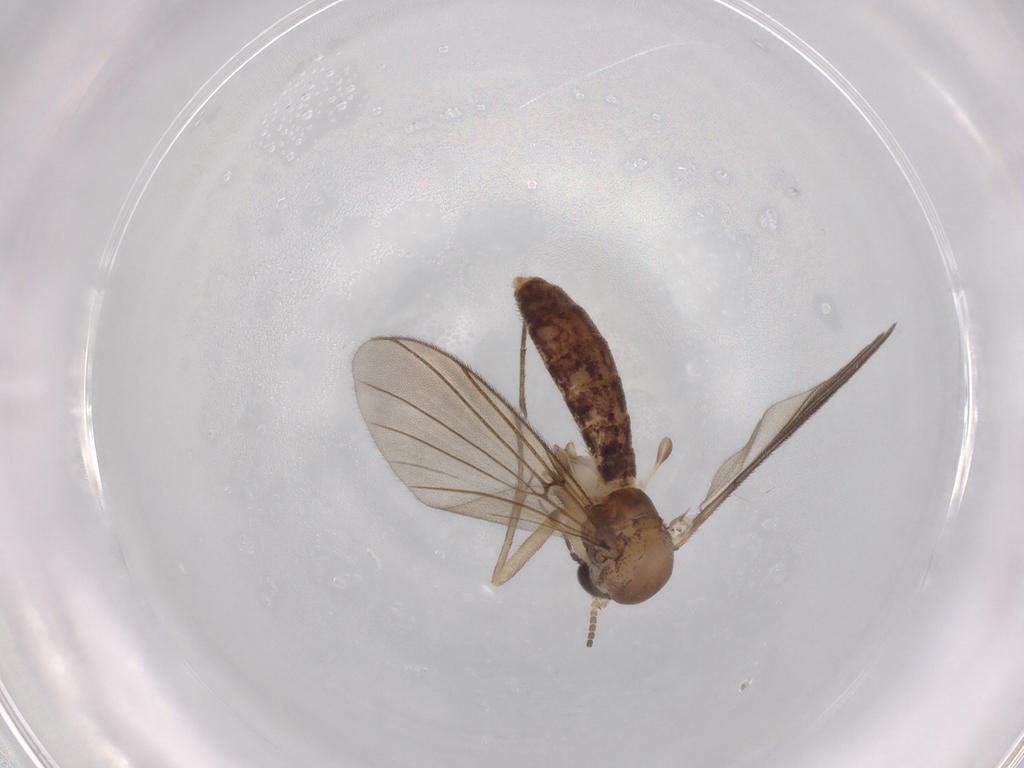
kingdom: Animalia
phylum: Arthropoda
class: Insecta
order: Diptera
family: Mycetophilidae
